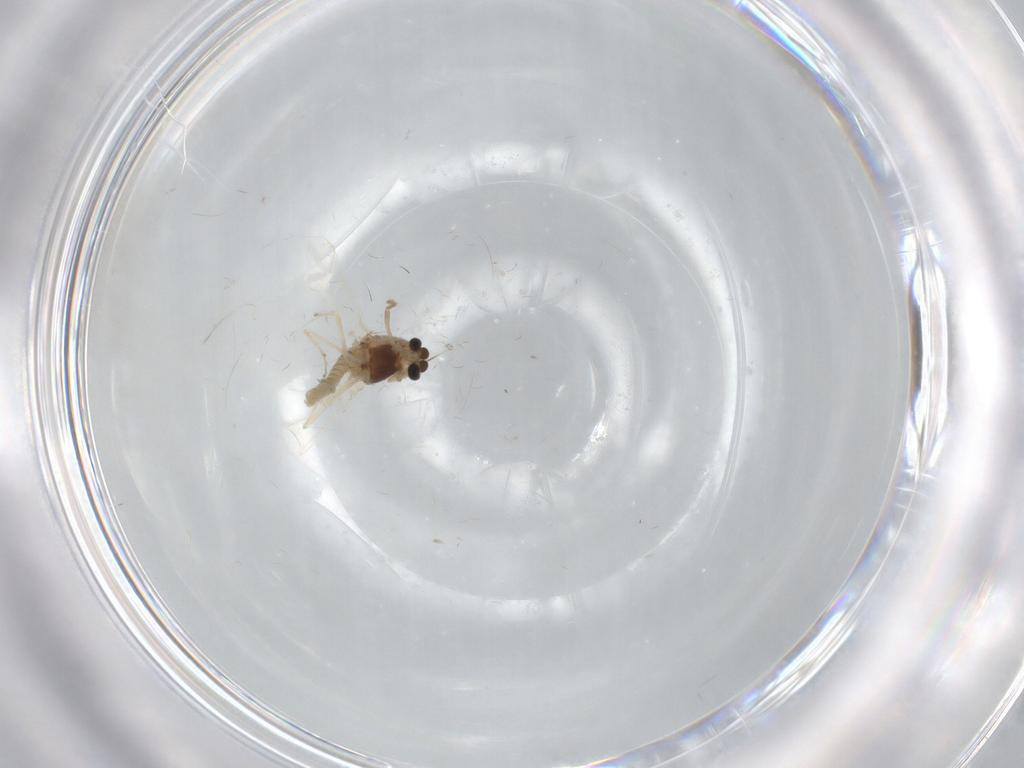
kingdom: Animalia
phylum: Arthropoda
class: Insecta
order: Diptera
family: Chironomidae
